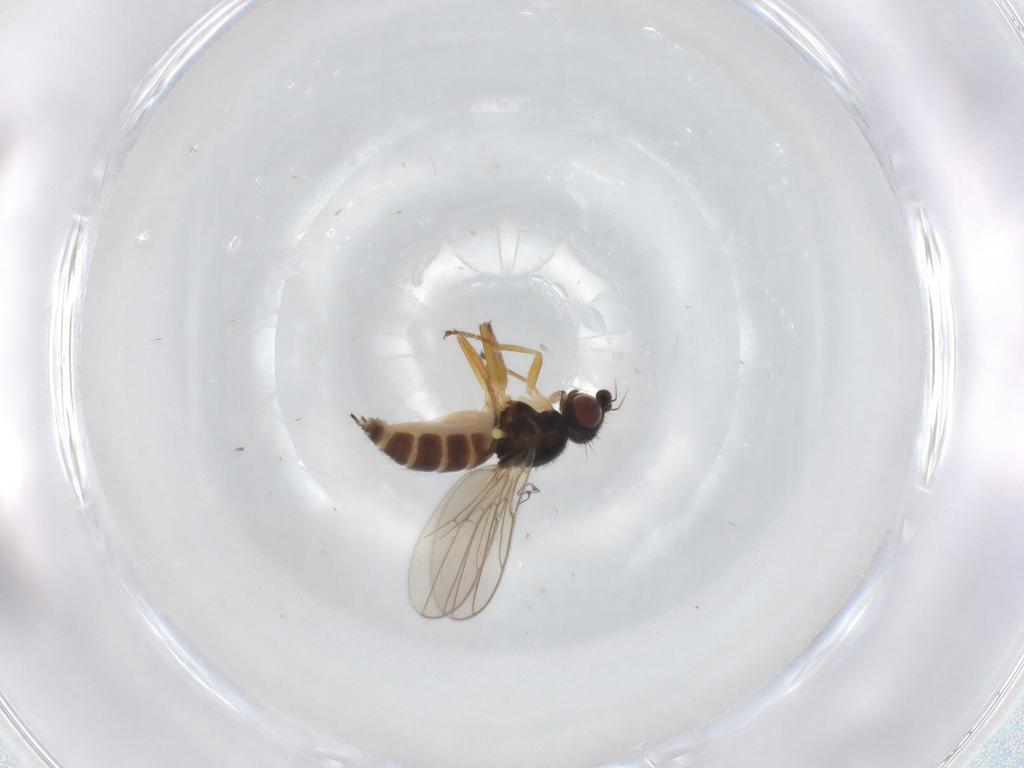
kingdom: Animalia
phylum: Arthropoda
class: Insecta
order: Diptera
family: Chloropidae
